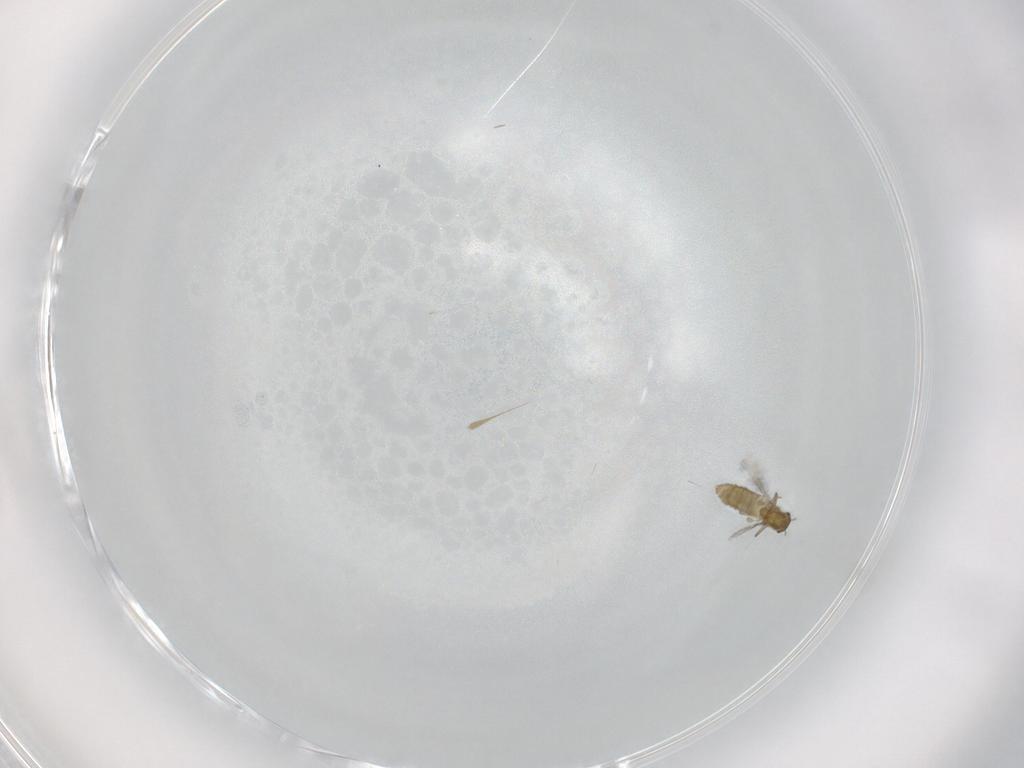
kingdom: Animalia
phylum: Arthropoda
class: Insecta
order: Diptera
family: Chironomidae
